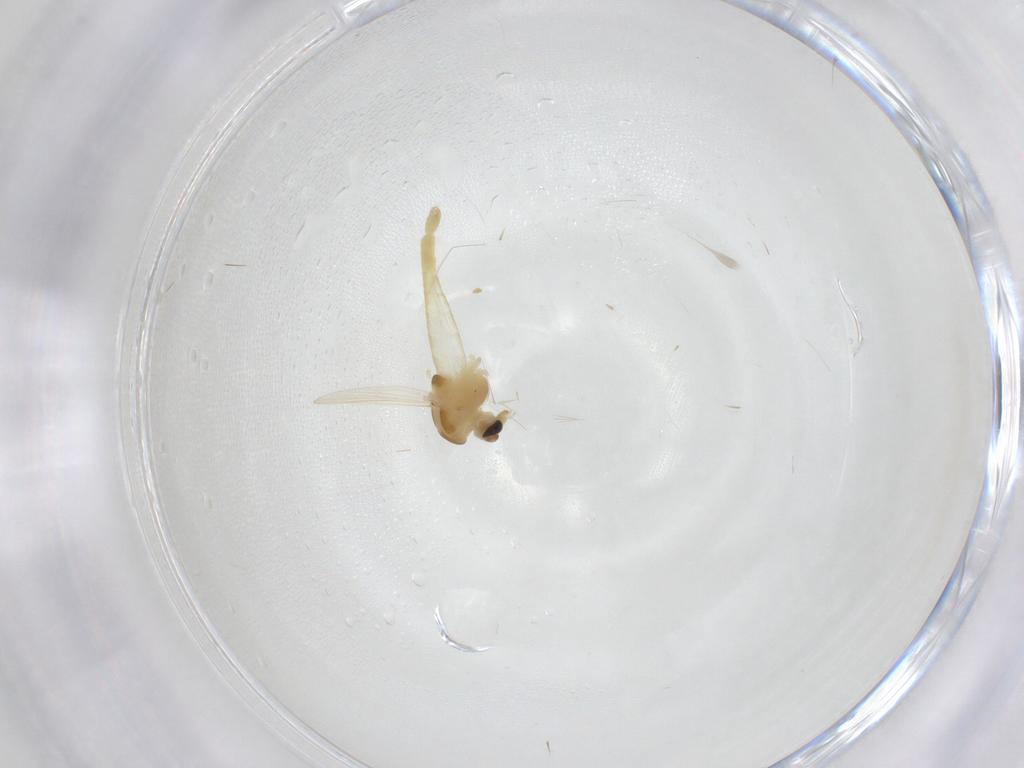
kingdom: Animalia
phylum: Arthropoda
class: Insecta
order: Diptera
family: Chironomidae
